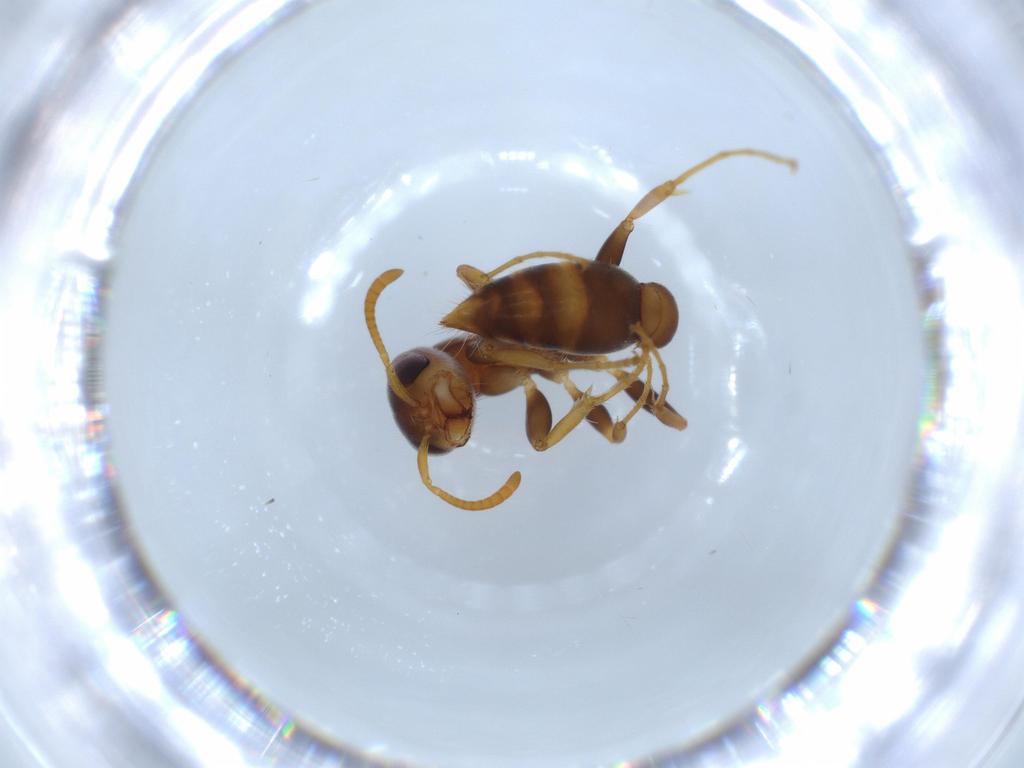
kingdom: Animalia
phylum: Arthropoda
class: Insecta
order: Hymenoptera
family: Formicidae
